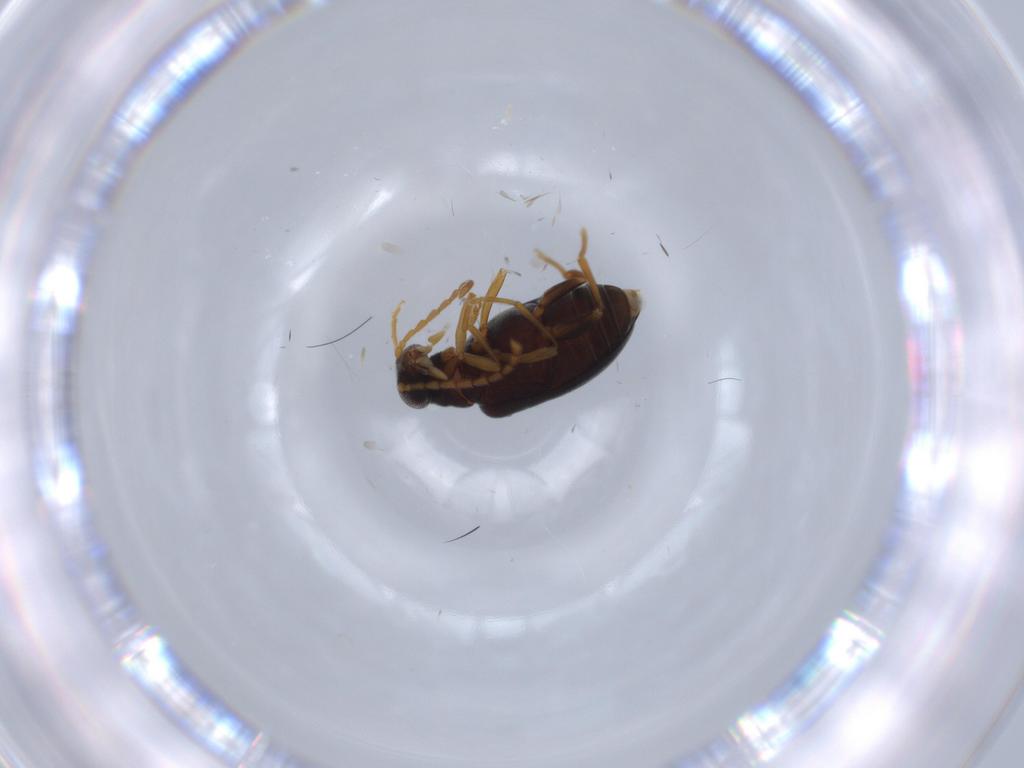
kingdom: Animalia
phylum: Arthropoda
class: Insecta
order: Coleoptera
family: Aderidae
